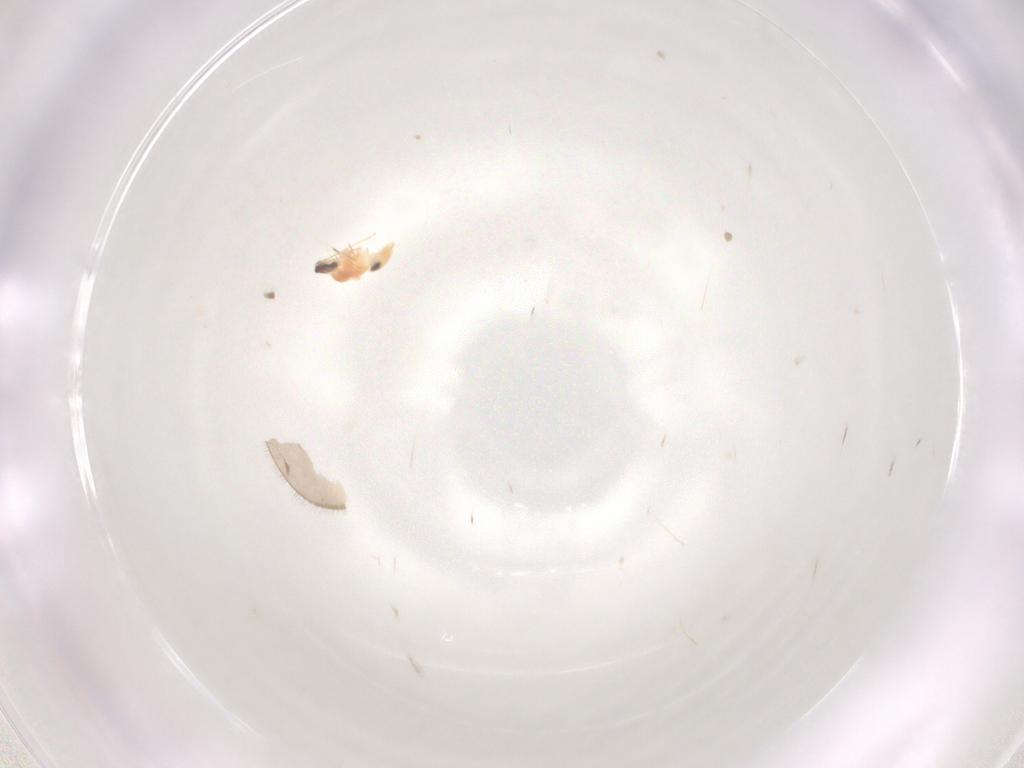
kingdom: Animalia
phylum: Arthropoda
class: Insecta
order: Diptera
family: Cecidomyiidae
